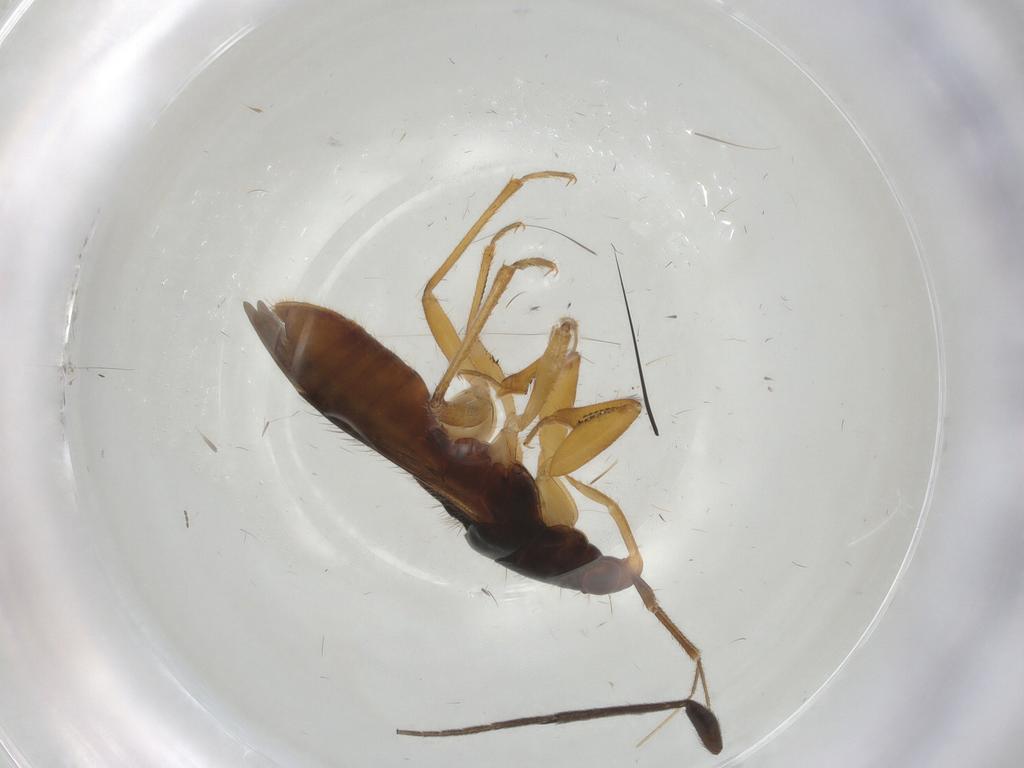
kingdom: Animalia
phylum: Arthropoda
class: Insecta
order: Hemiptera
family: Nabidae
